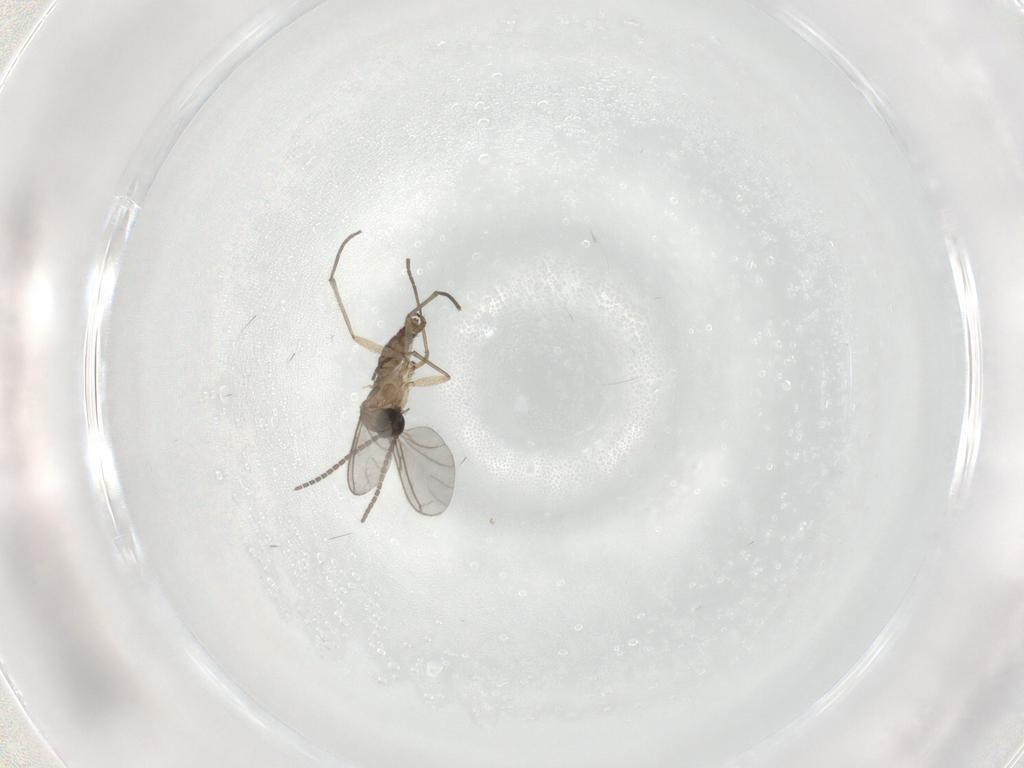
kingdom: Animalia
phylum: Arthropoda
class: Insecta
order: Diptera
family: Sciaridae
